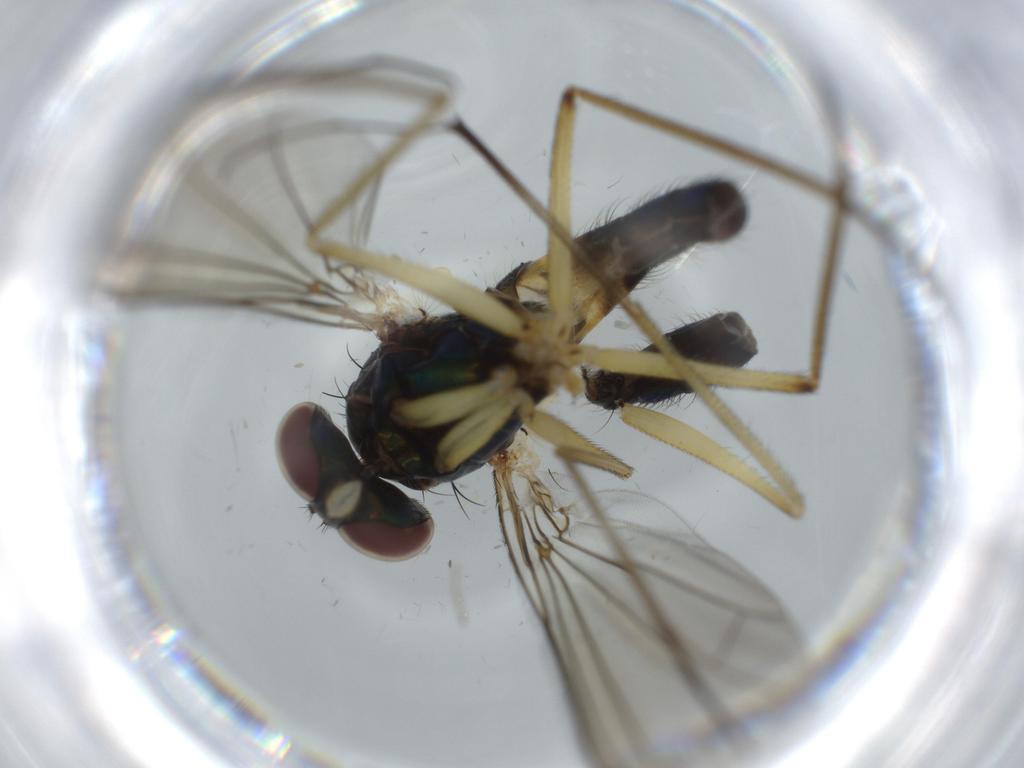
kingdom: Animalia
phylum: Arthropoda
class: Insecta
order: Diptera
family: Dolichopodidae
